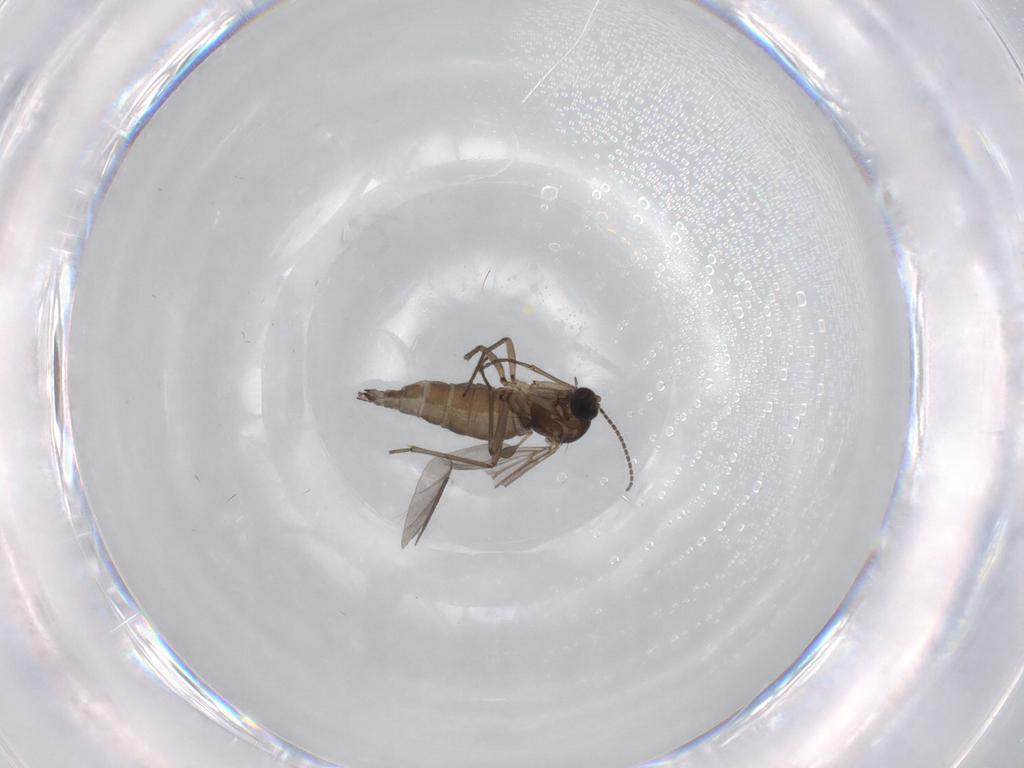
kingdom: Animalia
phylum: Arthropoda
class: Insecta
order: Diptera
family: Sciaridae
